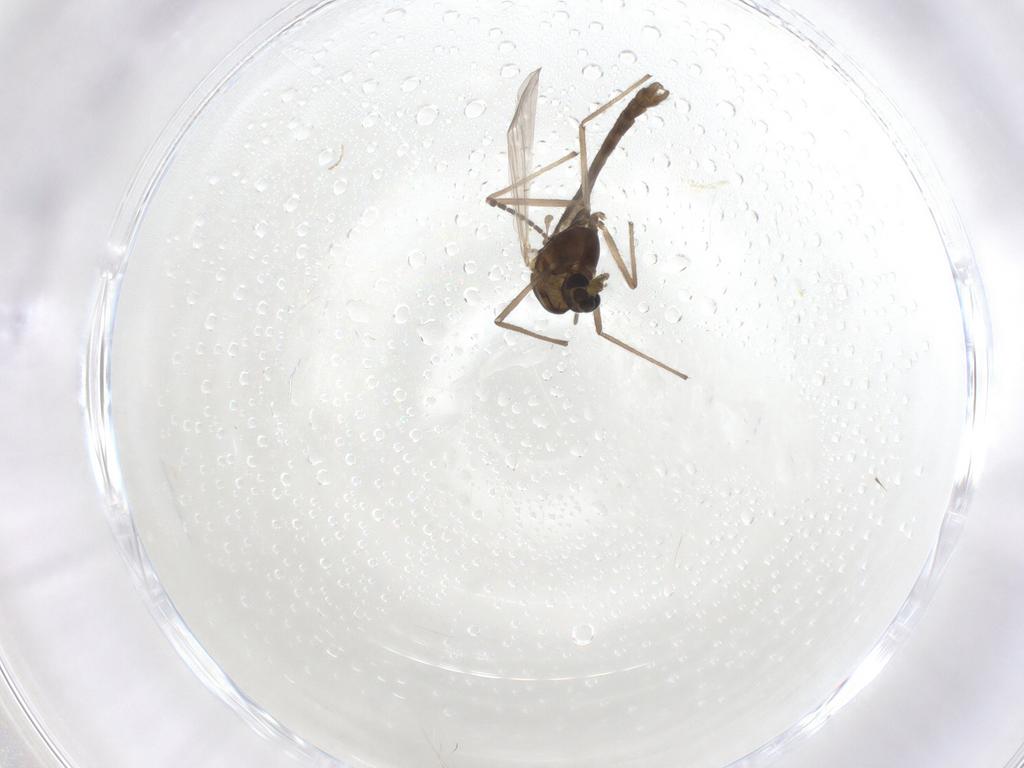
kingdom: Animalia
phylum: Arthropoda
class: Insecta
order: Diptera
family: Chironomidae
